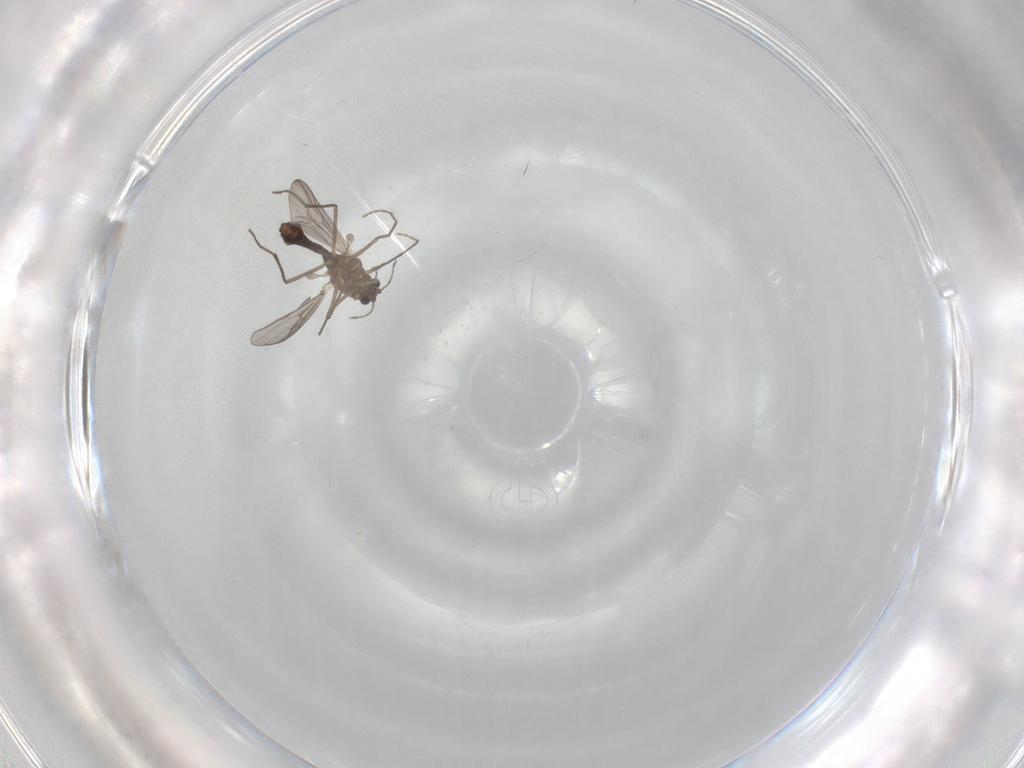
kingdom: Animalia
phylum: Arthropoda
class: Insecta
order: Diptera
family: Chironomidae
